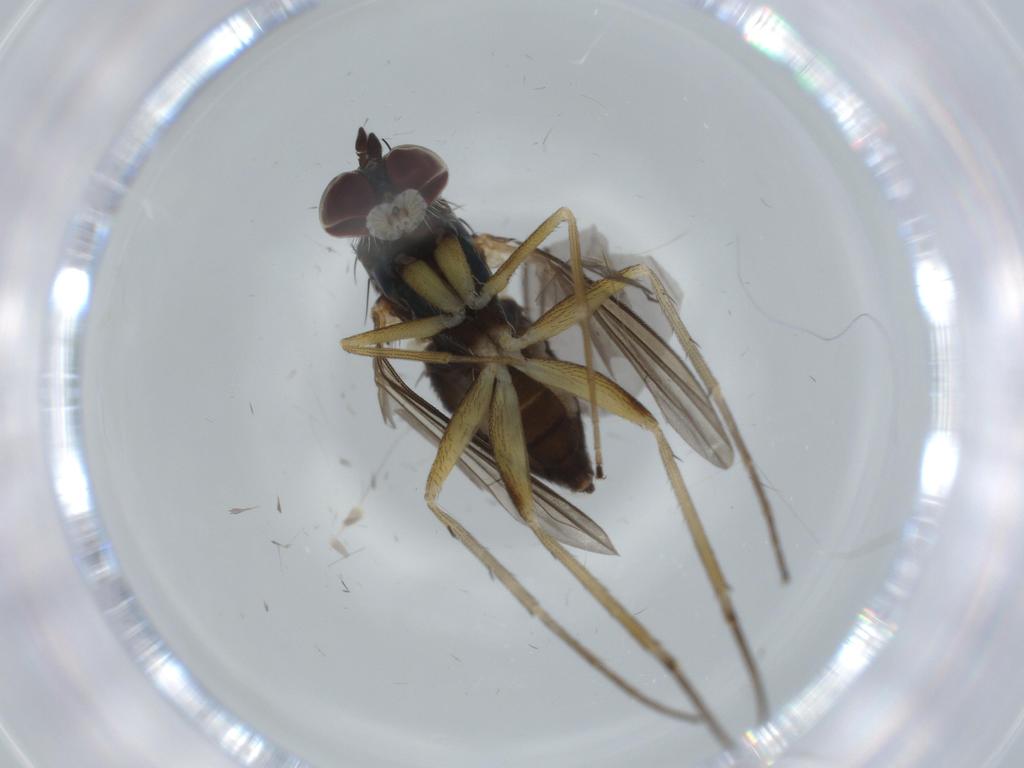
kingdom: Animalia
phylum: Arthropoda
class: Insecta
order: Diptera
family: Dolichopodidae
